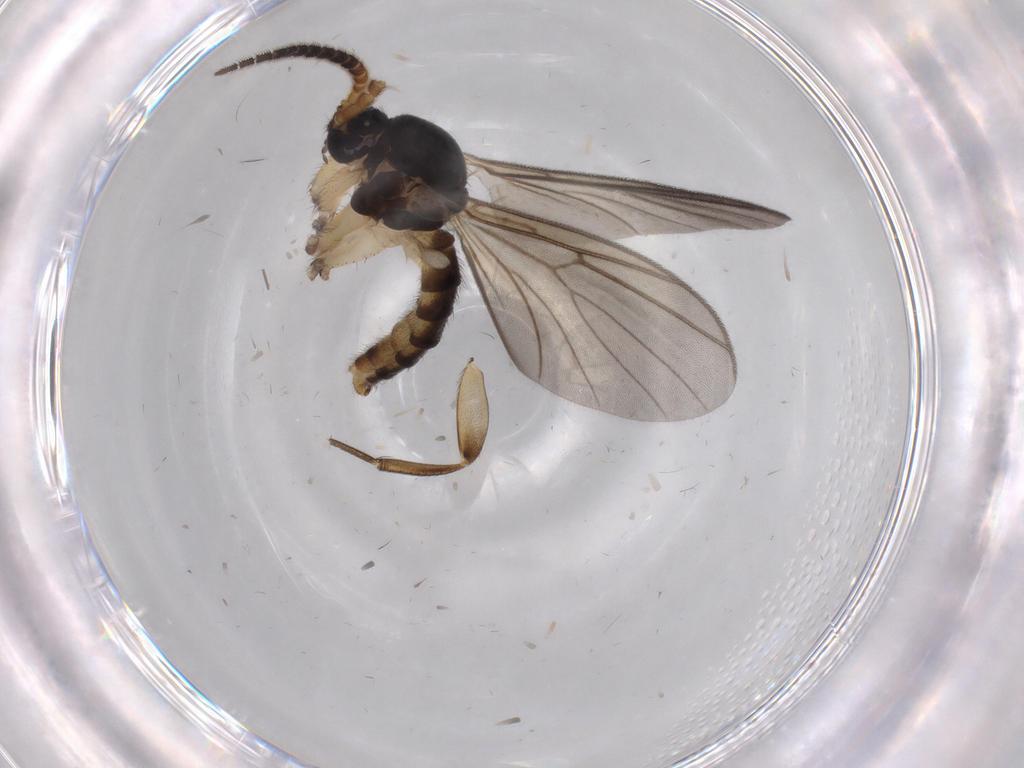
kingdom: Animalia
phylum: Arthropoda
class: Insecta
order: Diptera
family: Phoridae
